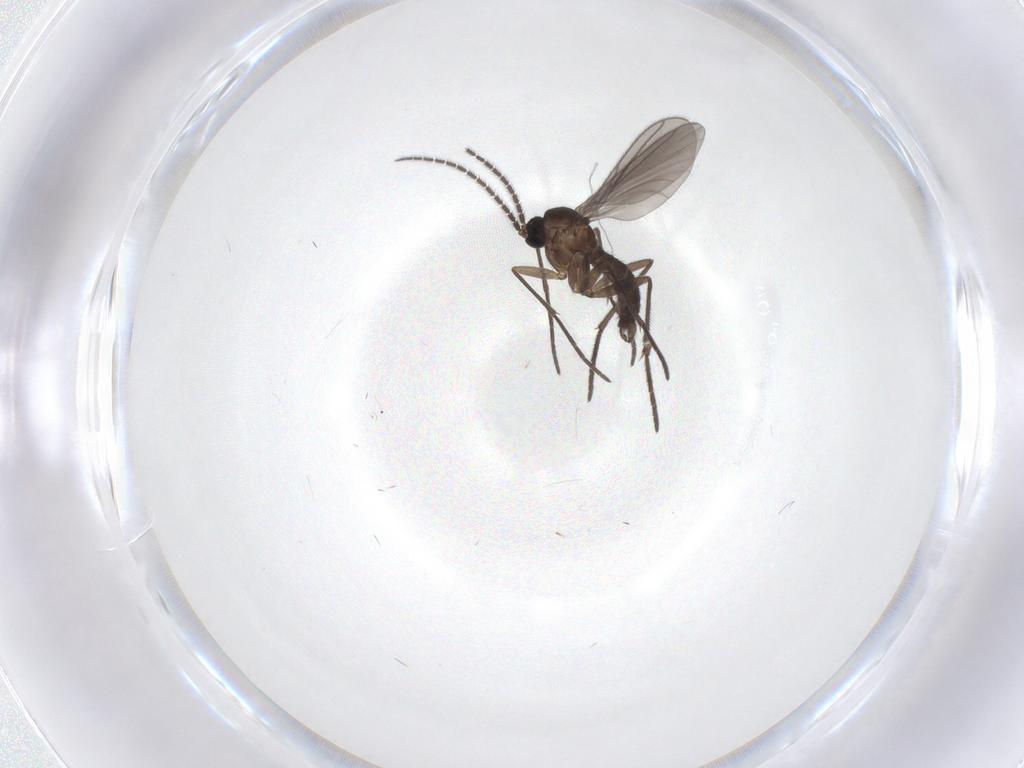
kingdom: Animalia
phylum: Arthropoda
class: Insecta
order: Diptera
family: Sciaridae
